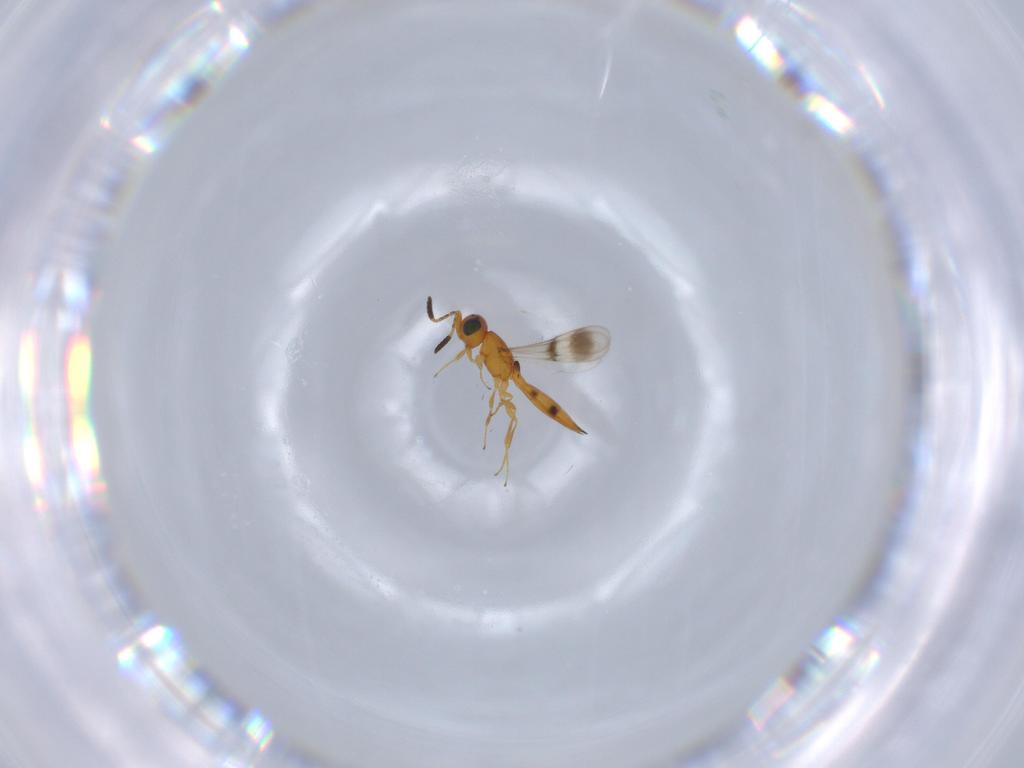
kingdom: Animalia
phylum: Arthropoda
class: Insecta
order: Hymenoptera
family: Scelionidae
